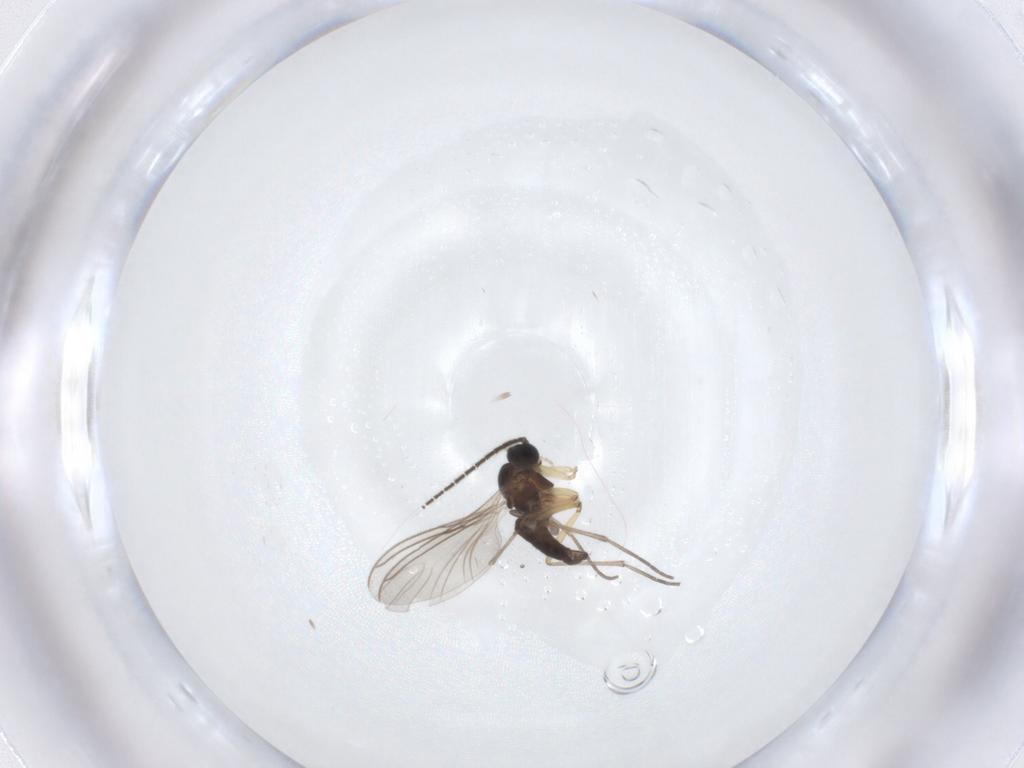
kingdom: Animalia
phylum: Arthropoda
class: Insecta
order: Diptera
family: Sciaridae
